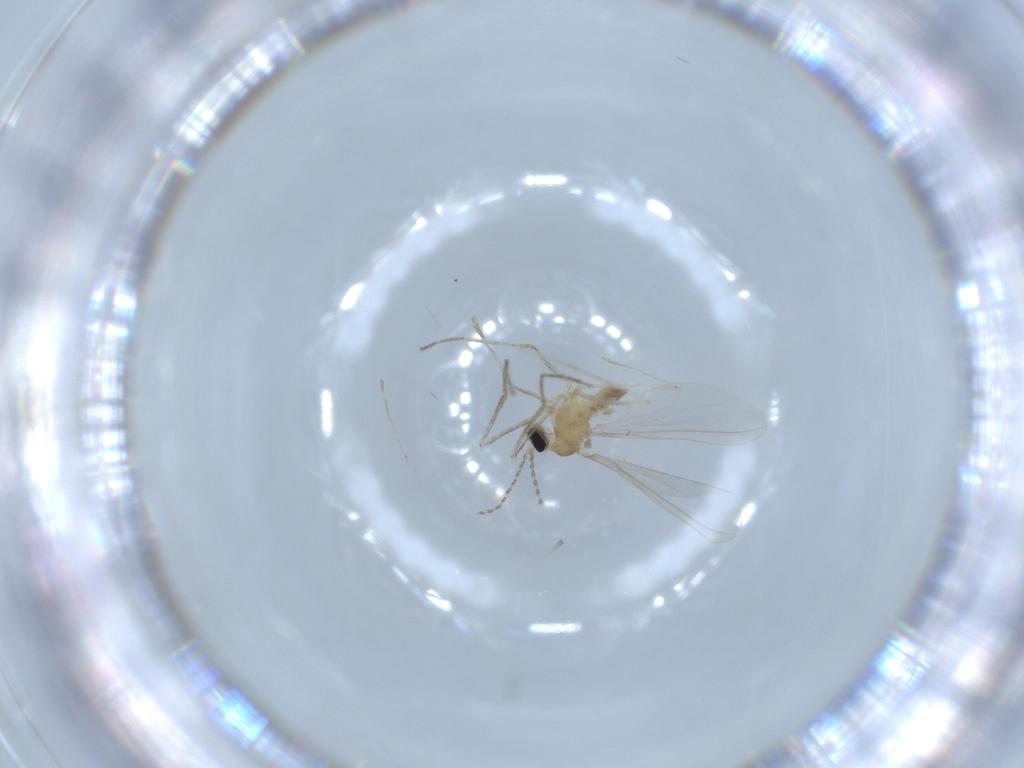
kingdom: Animalia
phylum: Arthropoda
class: Insecta
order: Diptera
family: Cecidomyiidae
